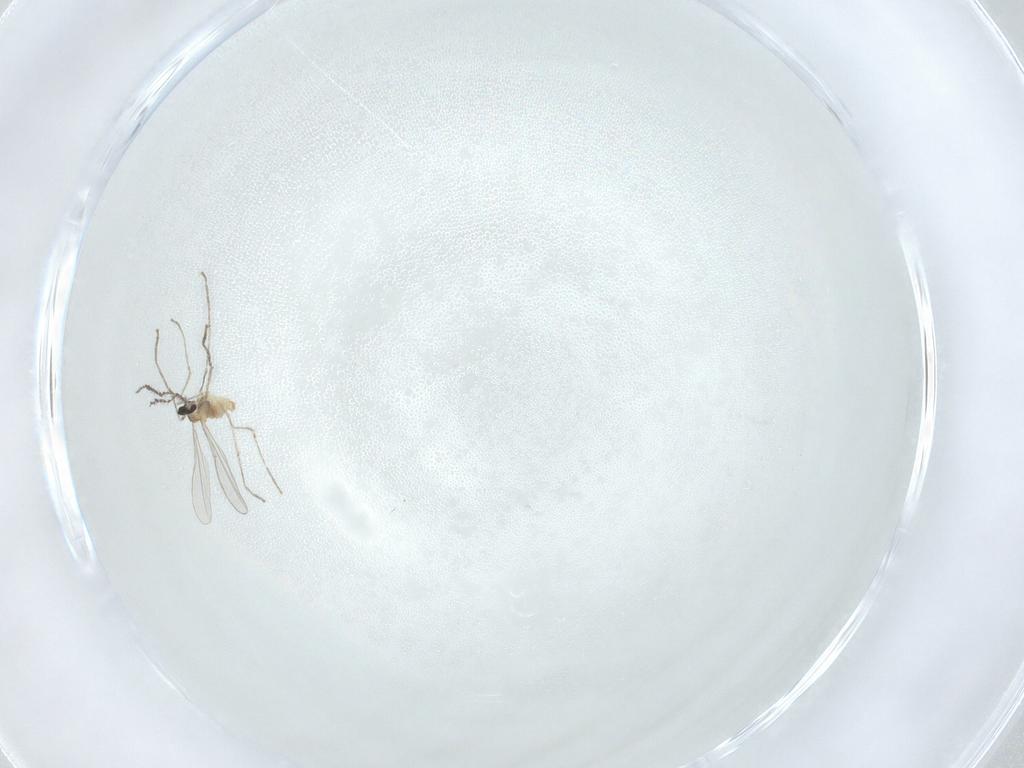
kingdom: Animalia
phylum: Arthropoda
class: Insecta
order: Diptera
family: Cecidomyiidae
